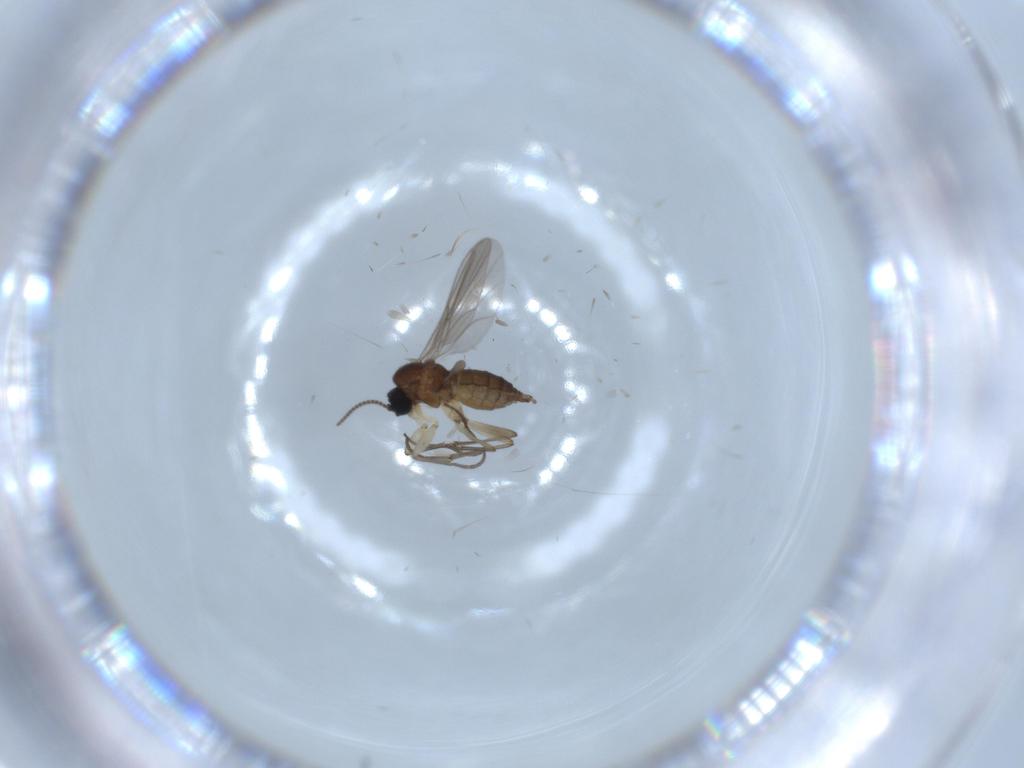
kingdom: Animalia
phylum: Arthropoda
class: Insecta
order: Diptera
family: Sciaridae
